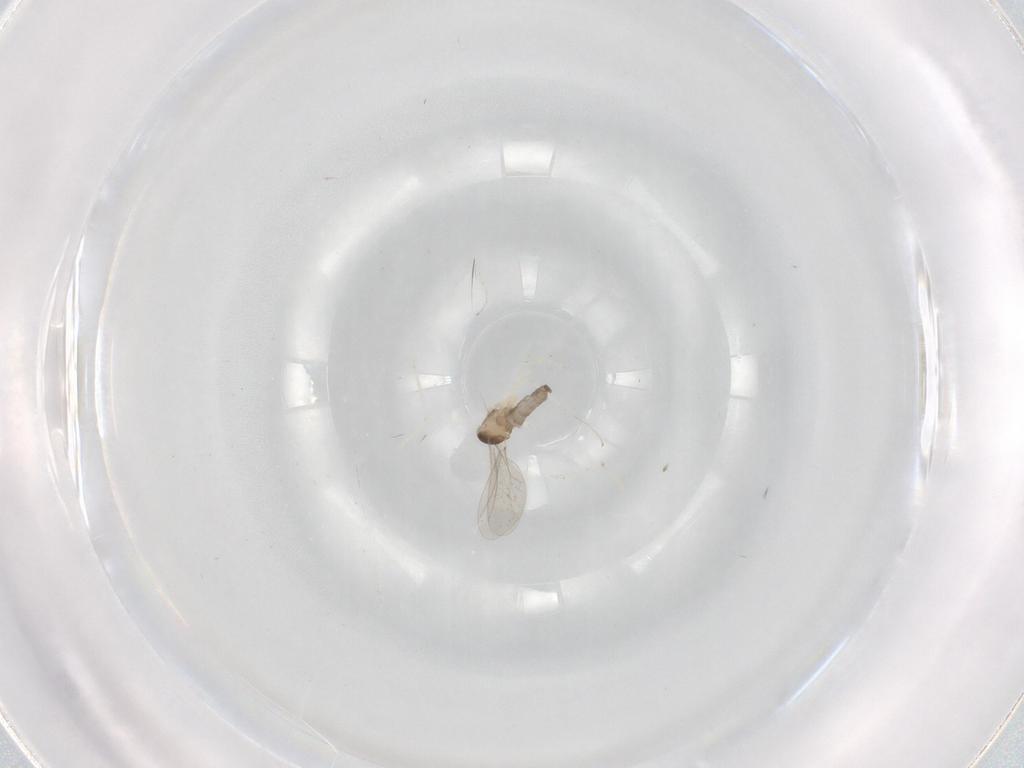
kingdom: Animalia
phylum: Arthropoda
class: Insecta
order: Diptera
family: Cecidomyiidae
